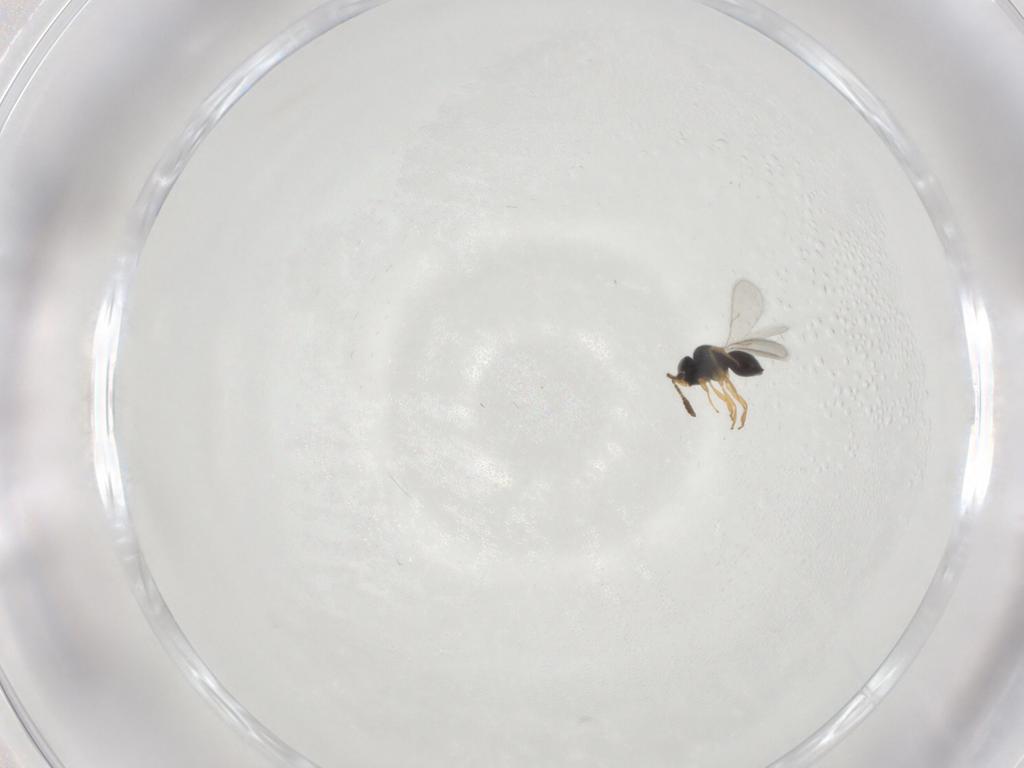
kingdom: Animalia
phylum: Arthropoda
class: Insecta
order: Hymenoptera
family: Scelionidae
